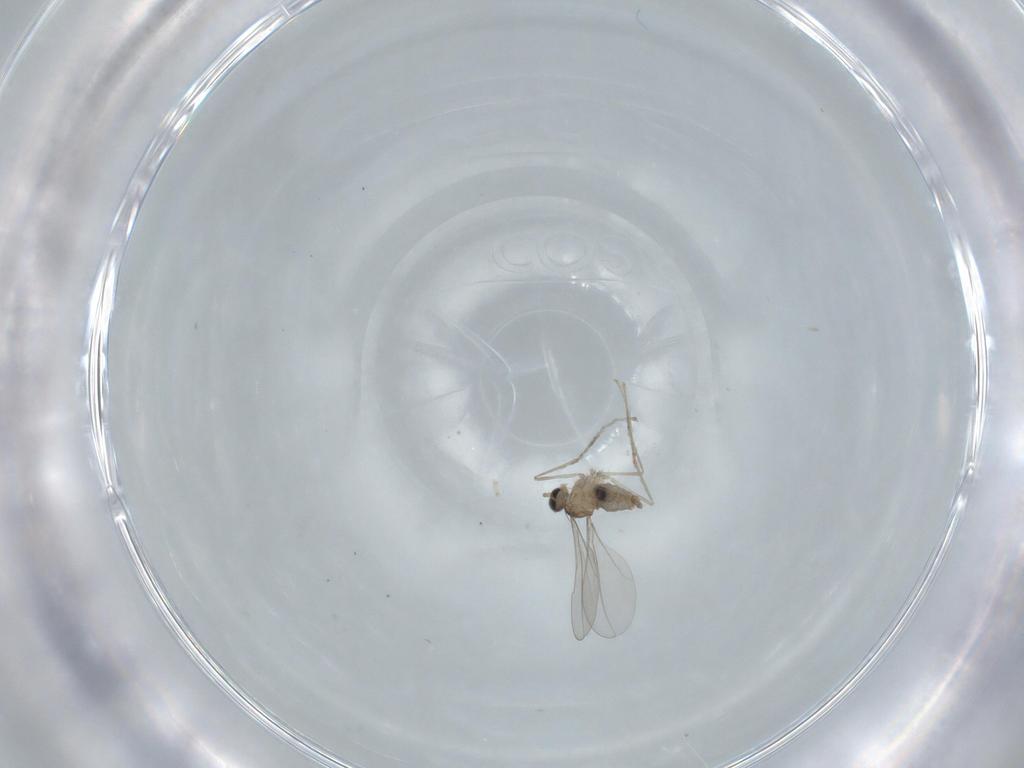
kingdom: Animalia
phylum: Arthropoda
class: Insecta
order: Diptera
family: Cecidomyiidae
